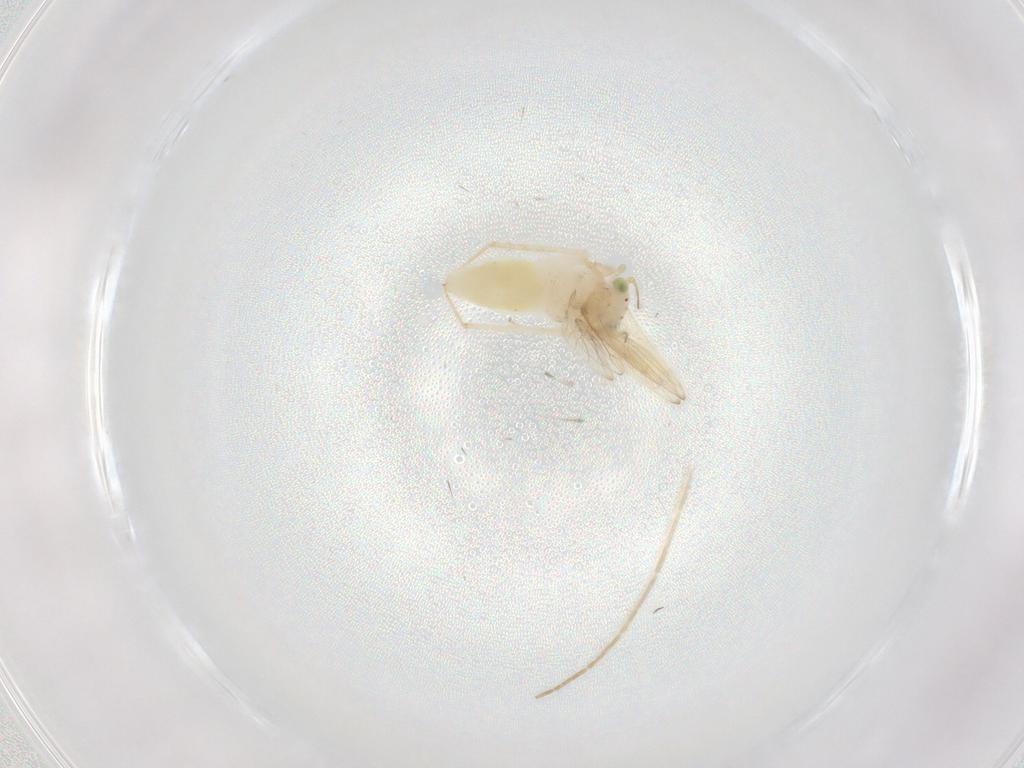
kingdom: Animalia
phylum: Arthropoda
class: Insecta
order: Psocodea
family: Lepidopsocidae
